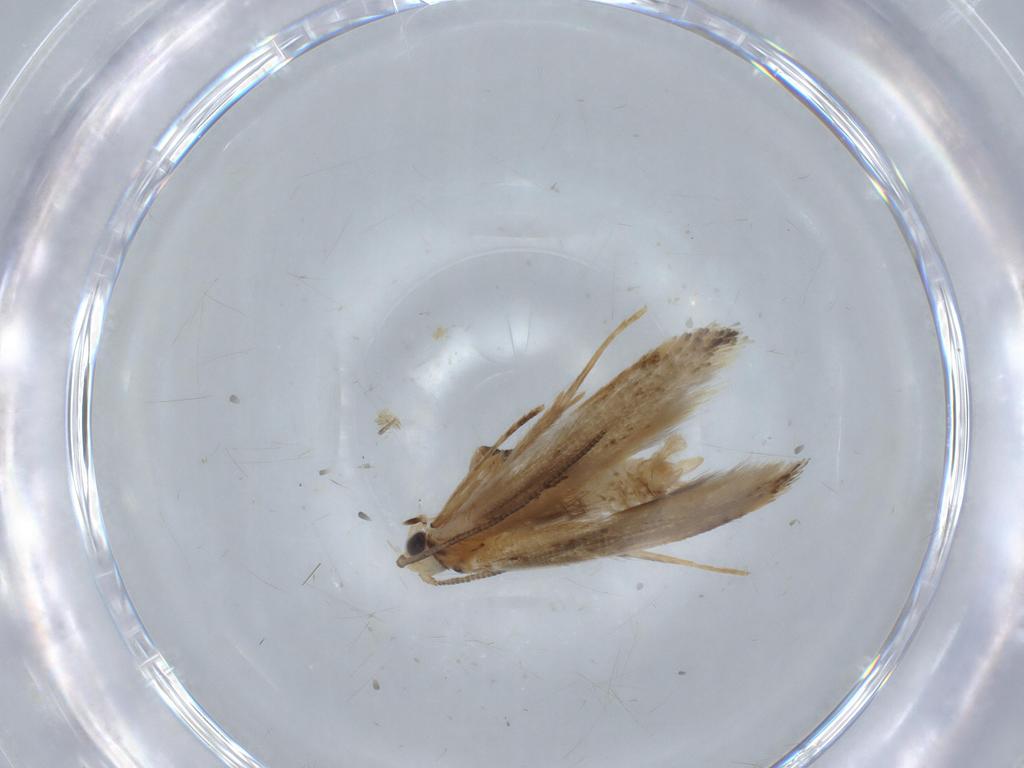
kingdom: Animalia
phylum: Arthropoda
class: Insecta
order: Lepidoptera
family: Tineidae
